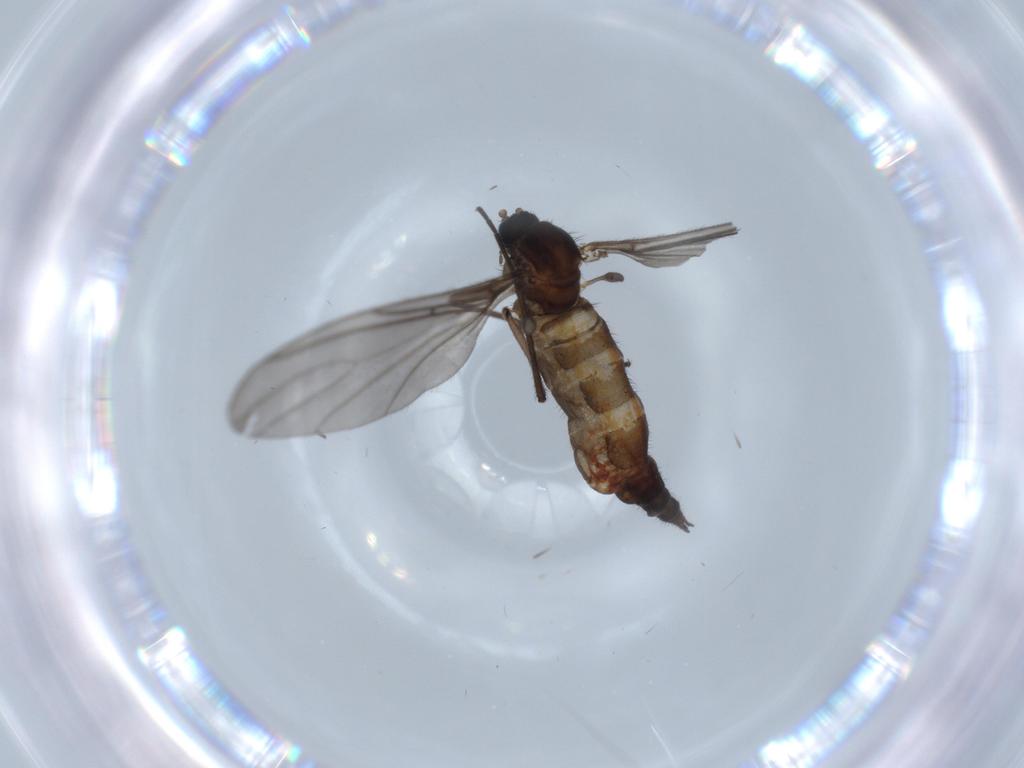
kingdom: Animalia
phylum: Arthropoda
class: Insecta
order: Diptera
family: Sciaridae
